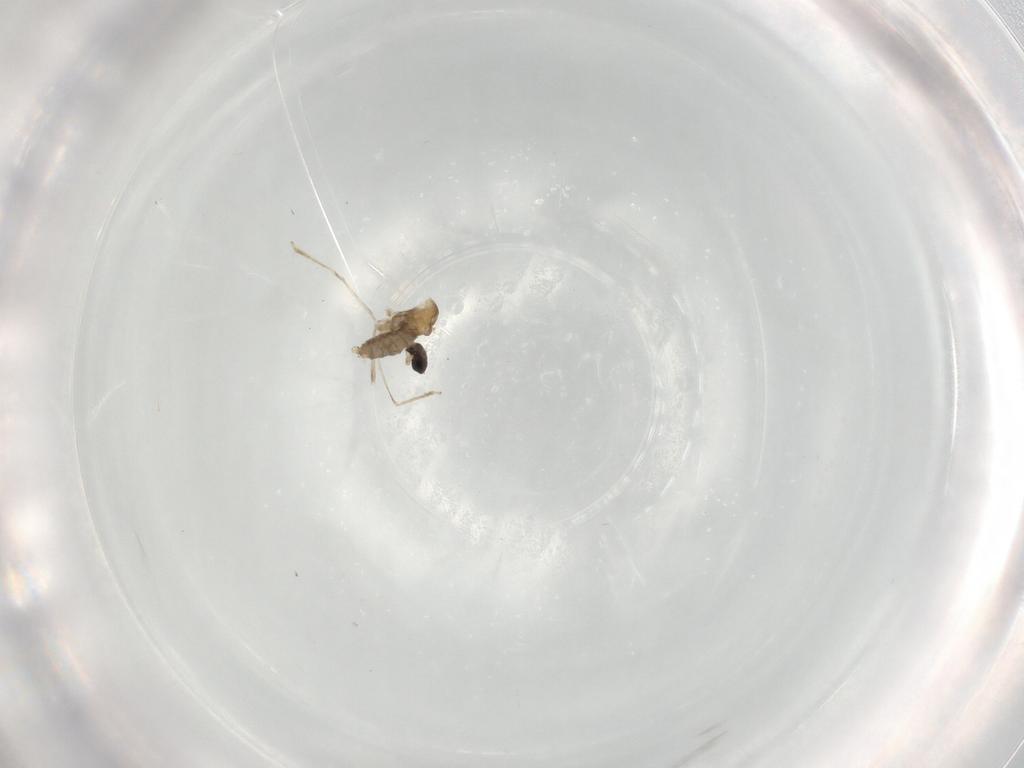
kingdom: Animalia
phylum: Arthropoda
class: Insecta
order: Diptera
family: Cecidomyiidae
